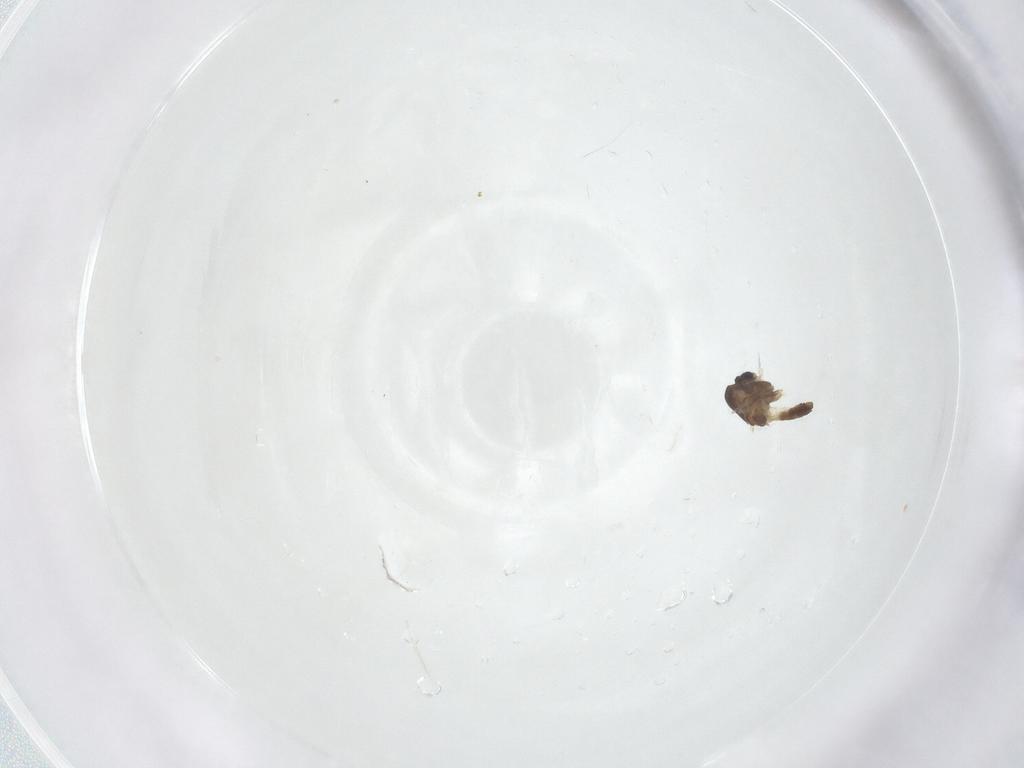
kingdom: Animalia
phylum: Arthropoda
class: Insecta
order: Diptera
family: Chironomidae
